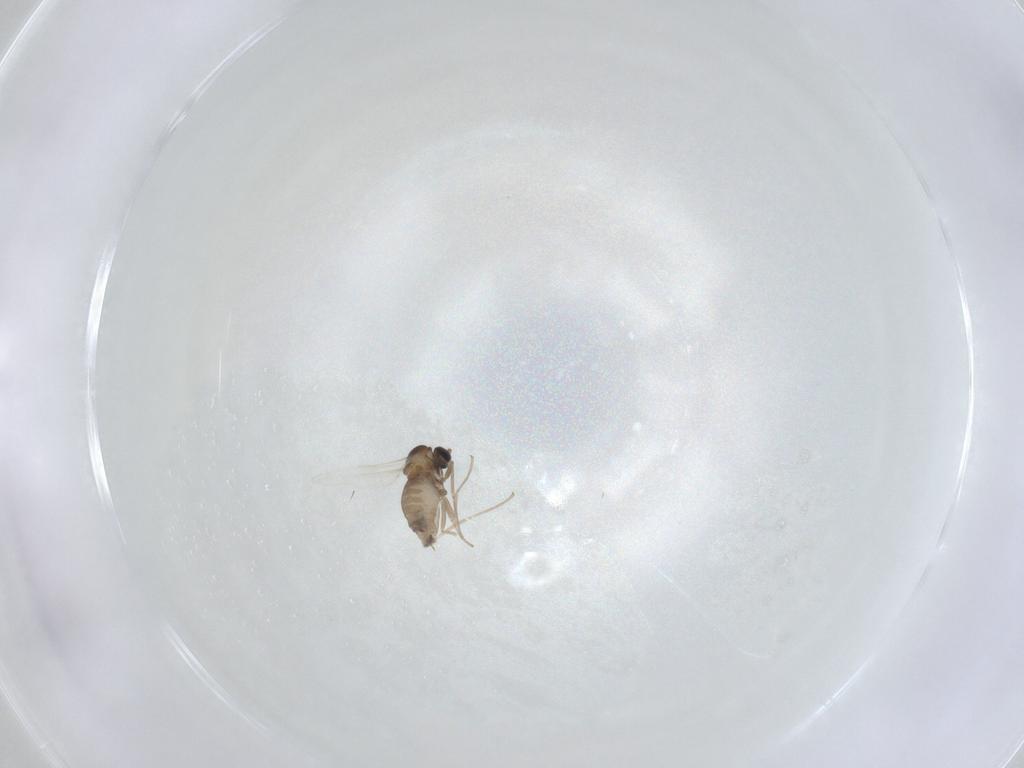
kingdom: Animalia
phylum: Arthropoda
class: Insecta
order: Diptera
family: Cecidomyiidae
